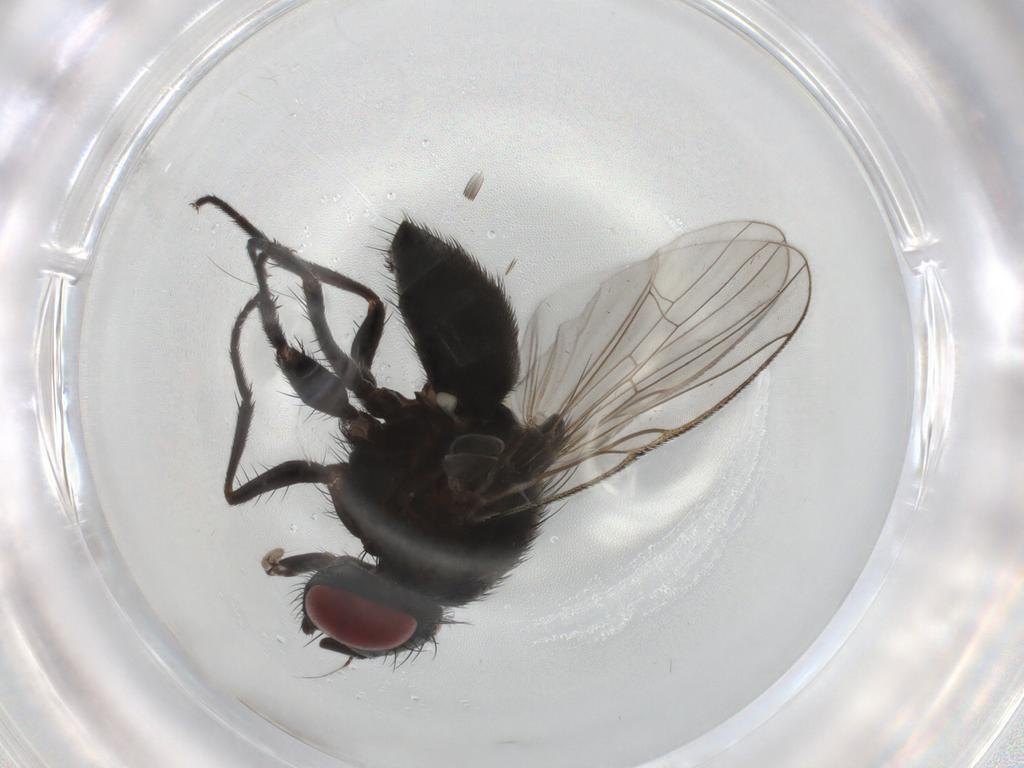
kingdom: Animalia
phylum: Arthropoda
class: Insecta
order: Diptera
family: Muscidae
